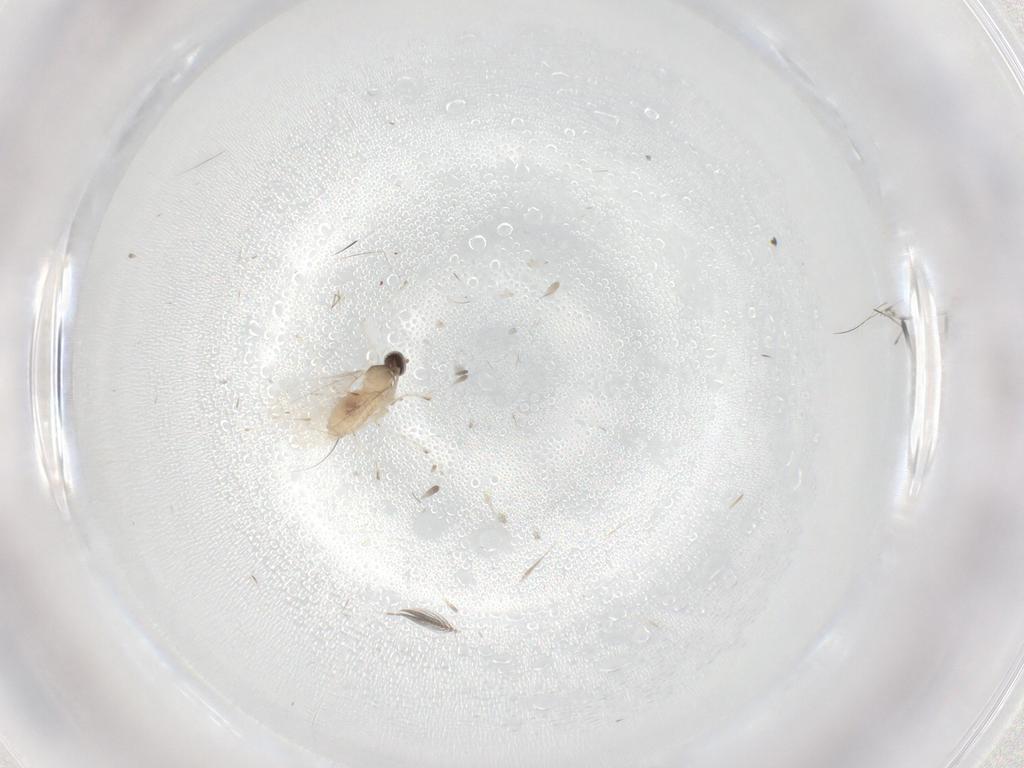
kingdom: Animalia
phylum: Arthropoda
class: Insecta
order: Diptera
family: Cecidomyiidae
